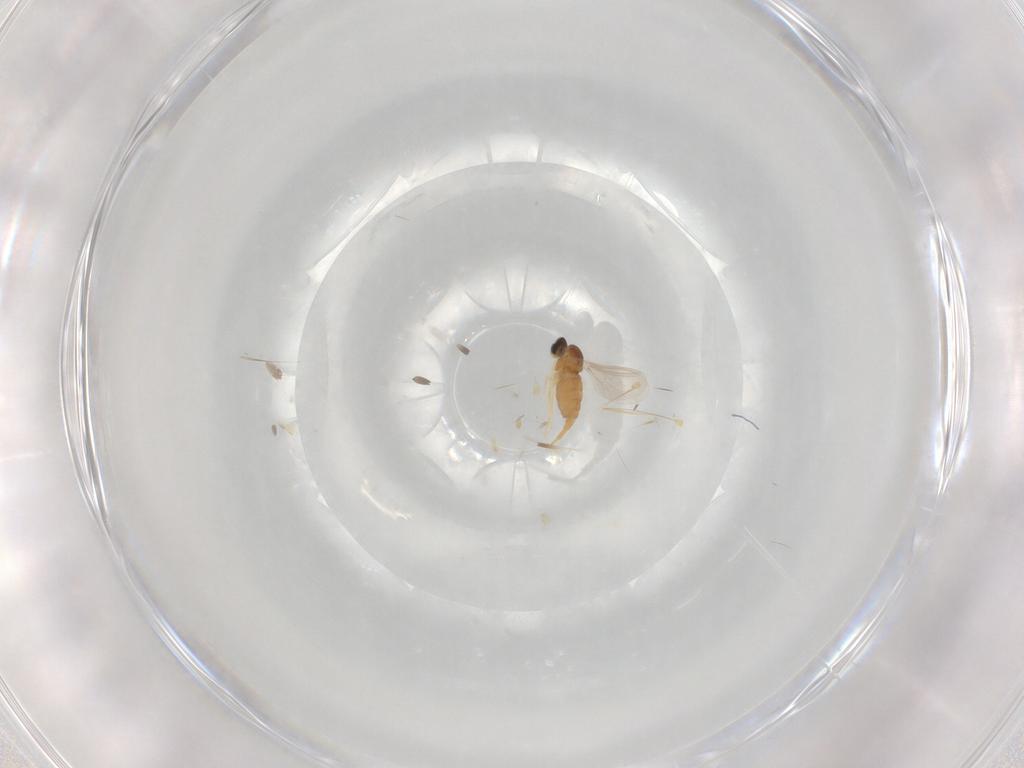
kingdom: Animalia
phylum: Arthropoda
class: Insecta
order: Diptera
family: Cecidomyiidae
